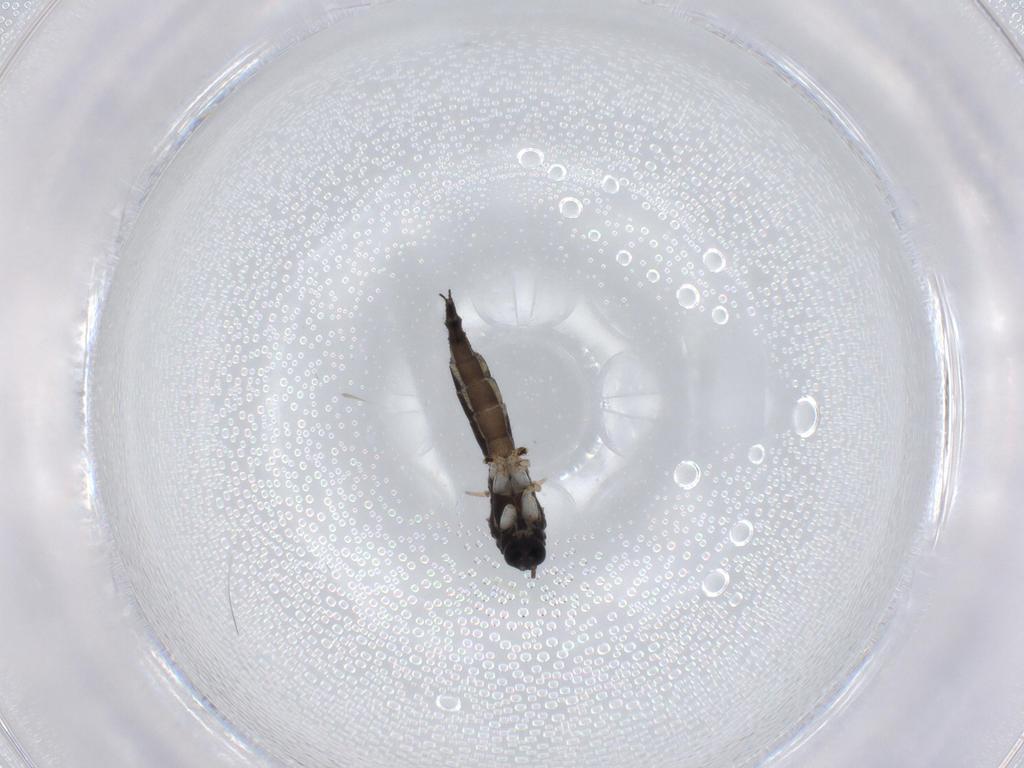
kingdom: Animalia
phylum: Arthropoda
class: Insecta
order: Diptera
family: Sciaridae
